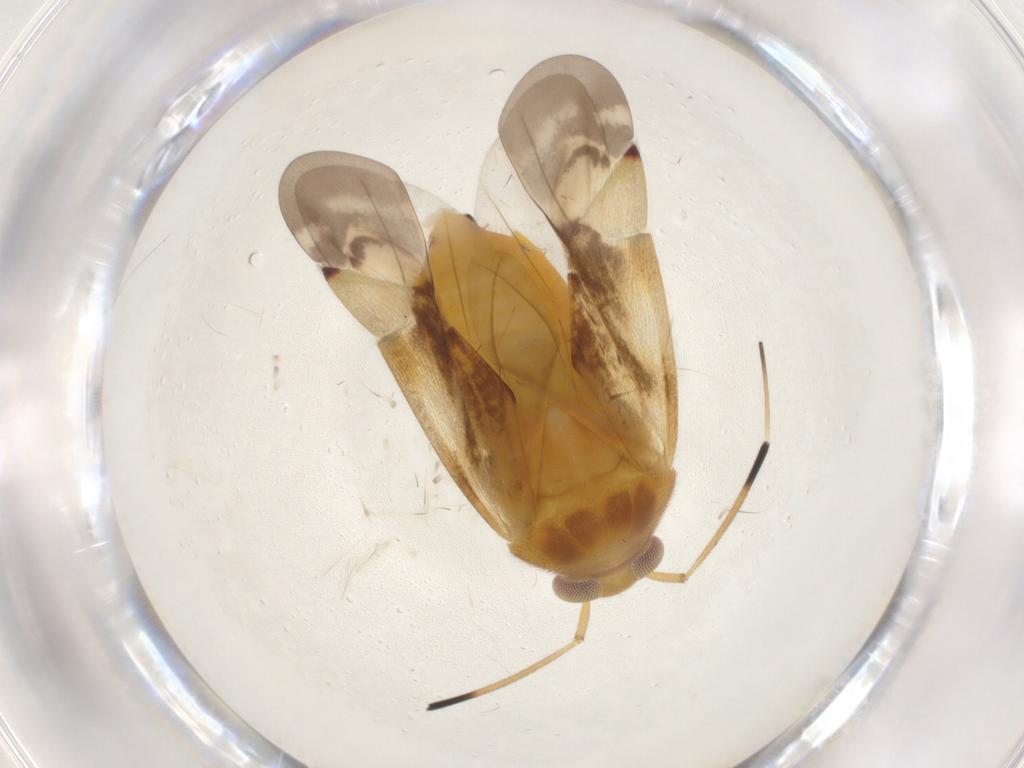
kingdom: Animalia
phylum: Arthropoda
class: Insecta
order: Hemiptera
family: Miridae
